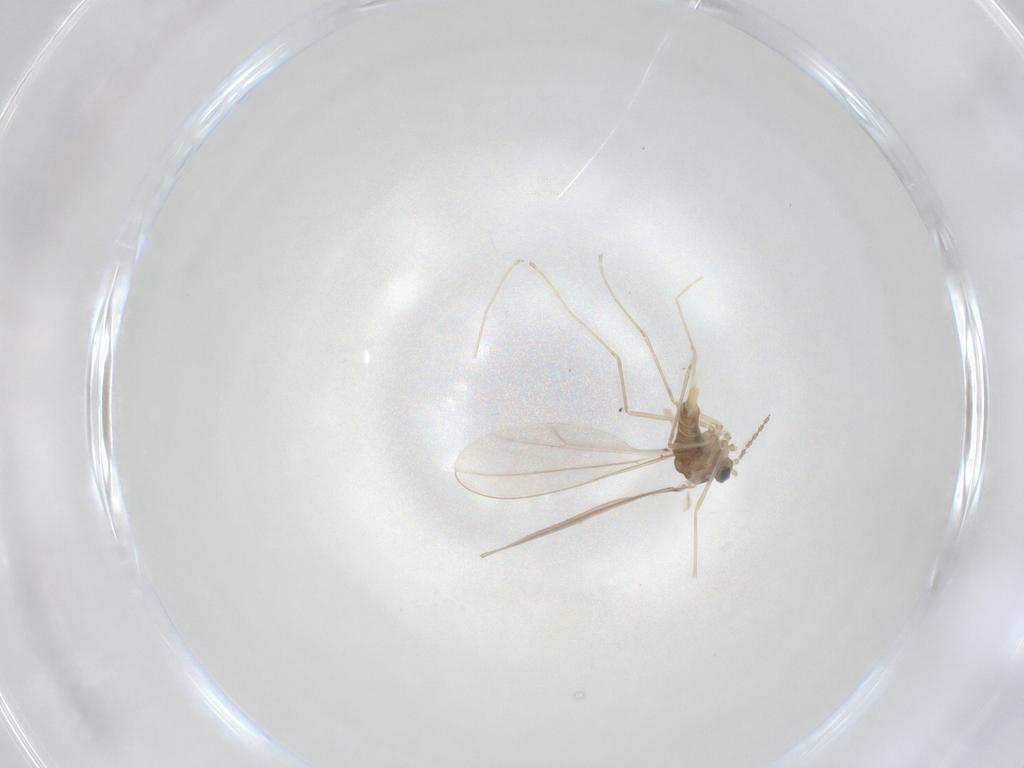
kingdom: Animalia
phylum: Arthropoda
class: Insecta
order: Diptera
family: Cecidomyiidae
